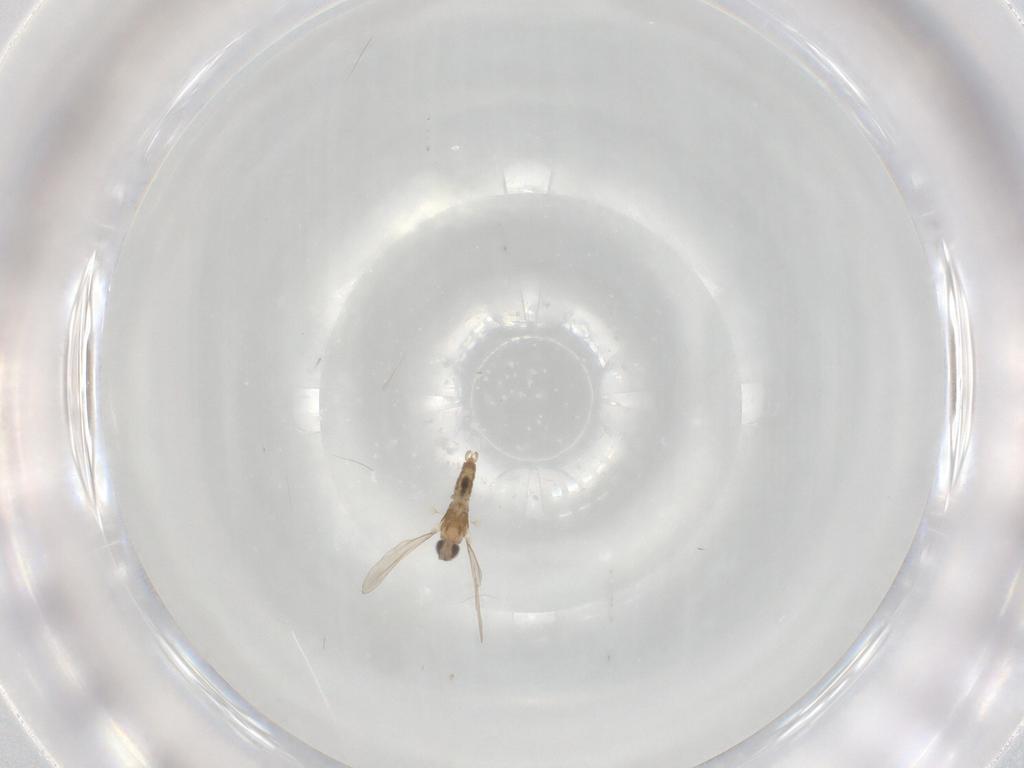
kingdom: Animalia
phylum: Arthropoda
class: Insecta
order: Diptera
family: Cecidomyiidae
